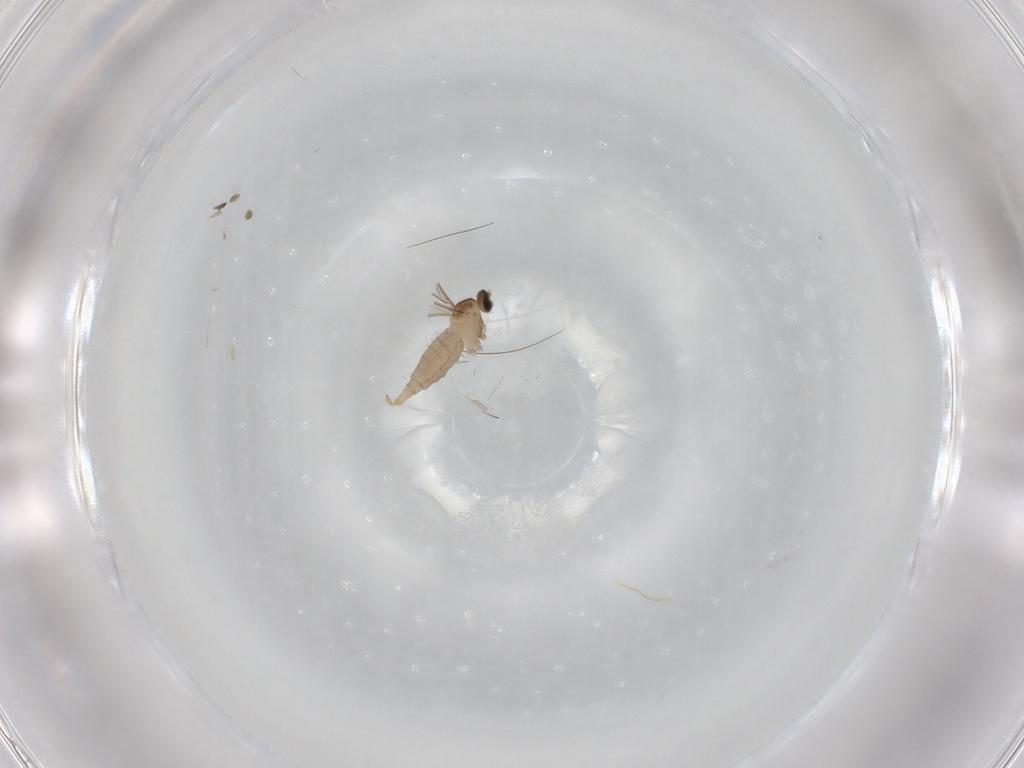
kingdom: Animalia
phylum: Arthropoda
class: Insecta
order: Diptera
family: Cecidomyiidae
